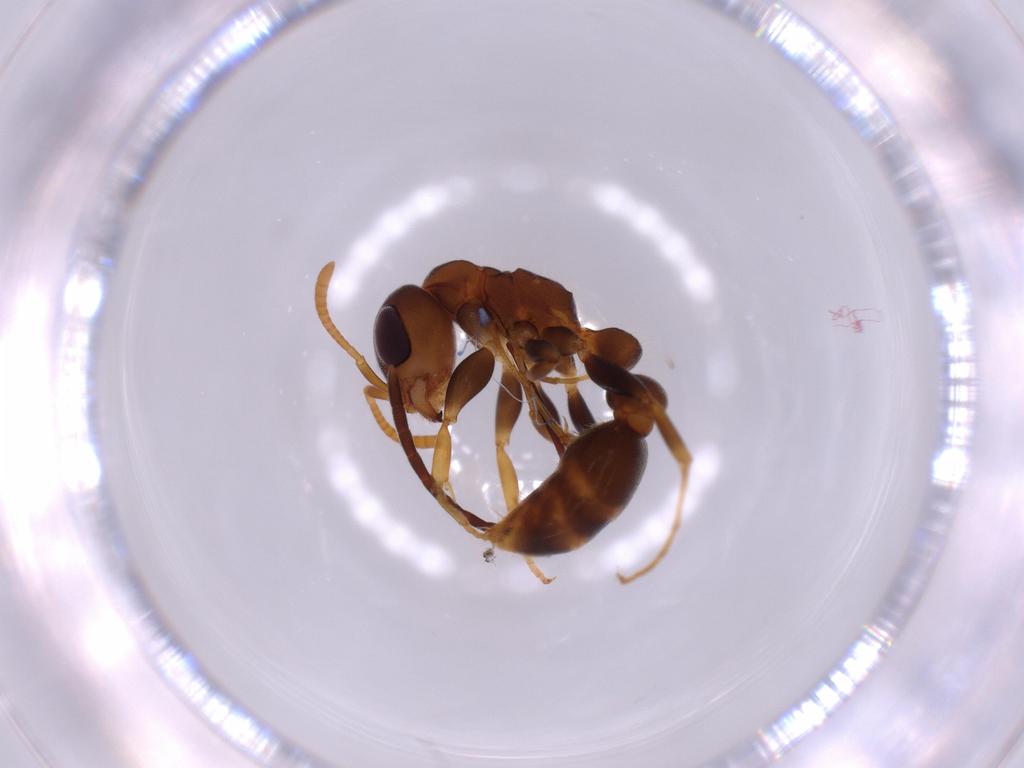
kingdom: Animalia
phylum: Arthropoda
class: Insecta
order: Hymenoptera
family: Formicidae
